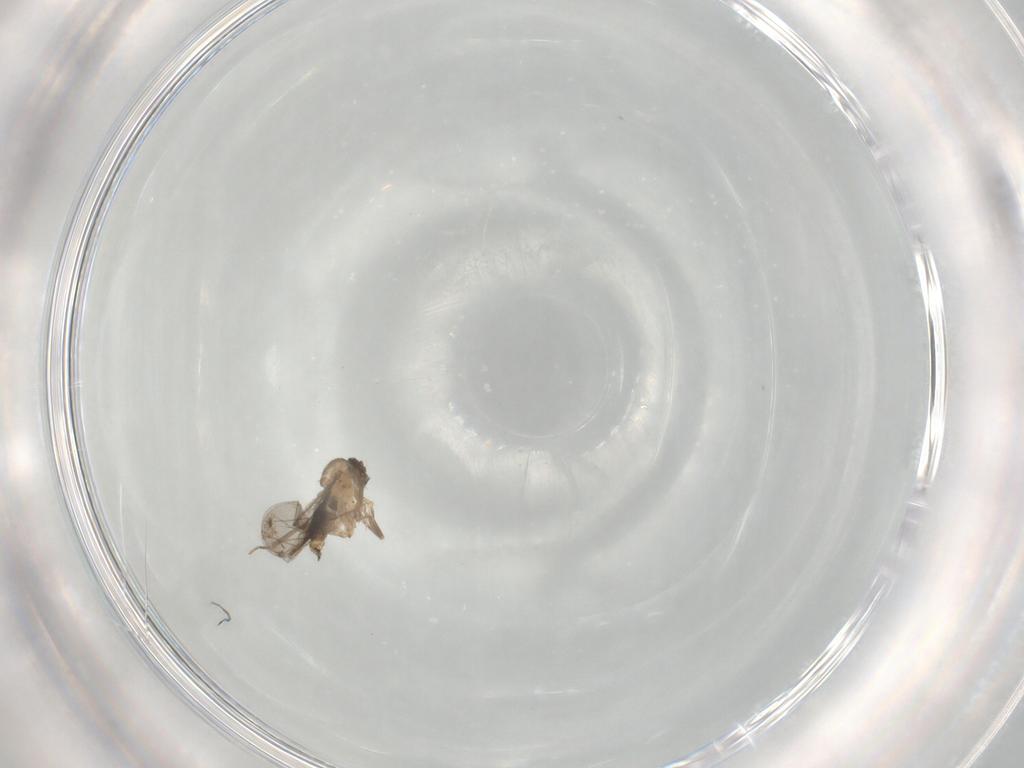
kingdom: Animalia
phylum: Arthropoda
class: Insecta
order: Diptera
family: Cecidomyiidae
